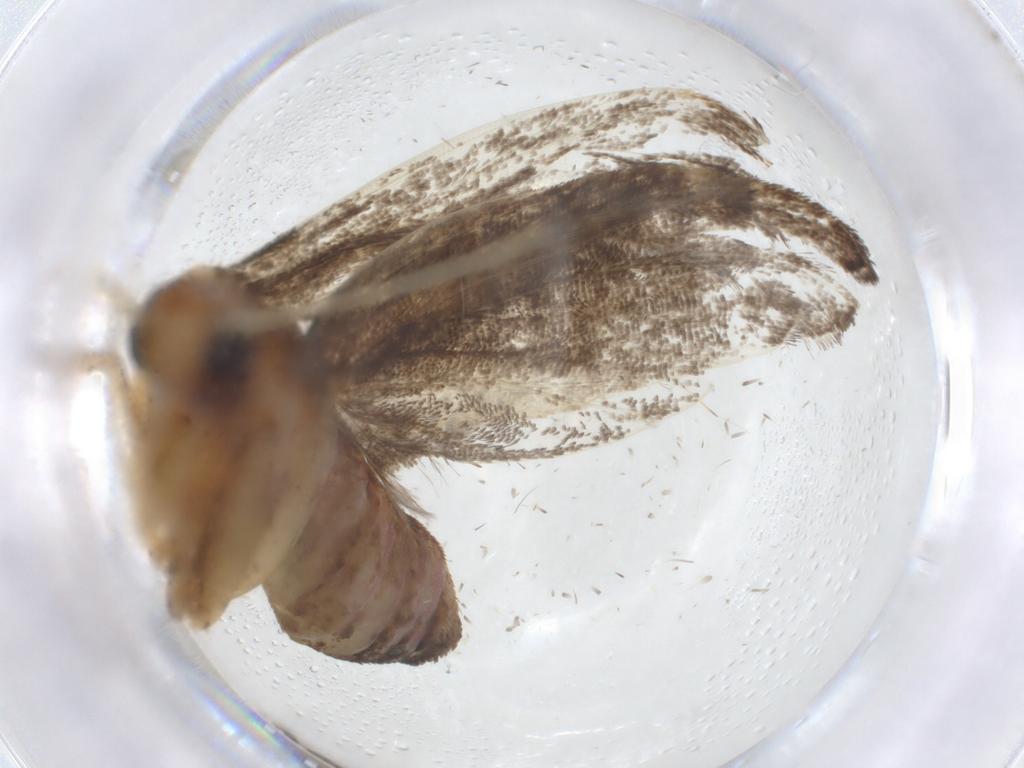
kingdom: Animalia
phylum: Arthropoda
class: Insecta
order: Lepidoptera
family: Lecithoceridae
